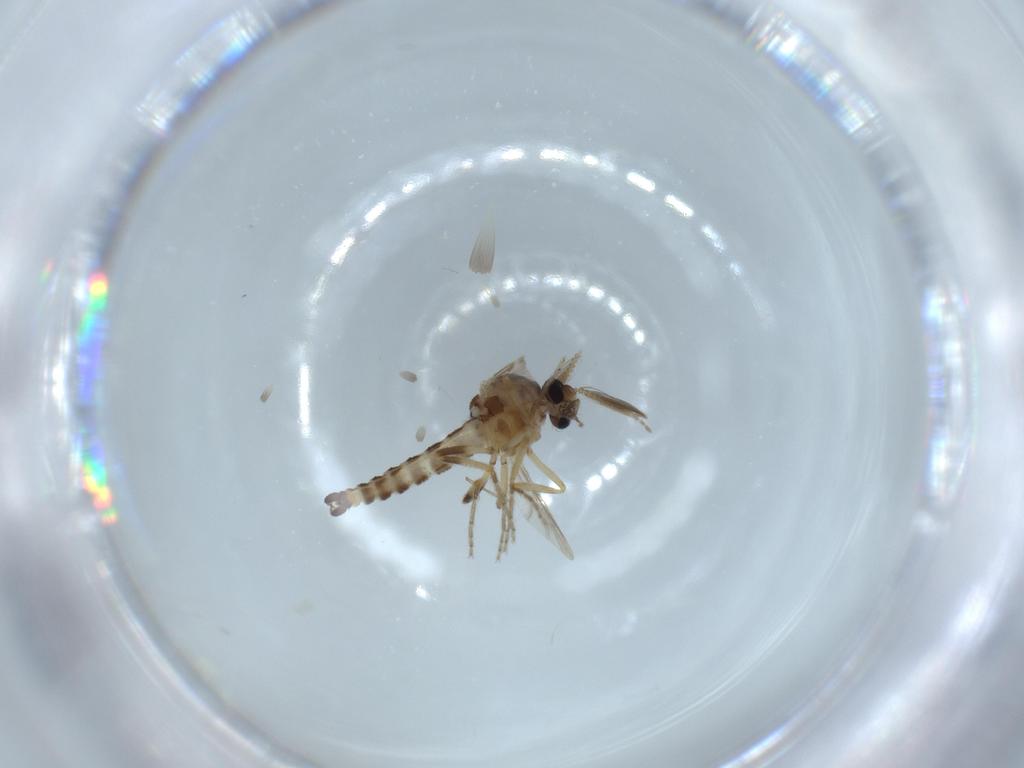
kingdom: Animalia
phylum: Arthropoda
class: Insecta
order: Diptera
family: Ceratopogonidae
